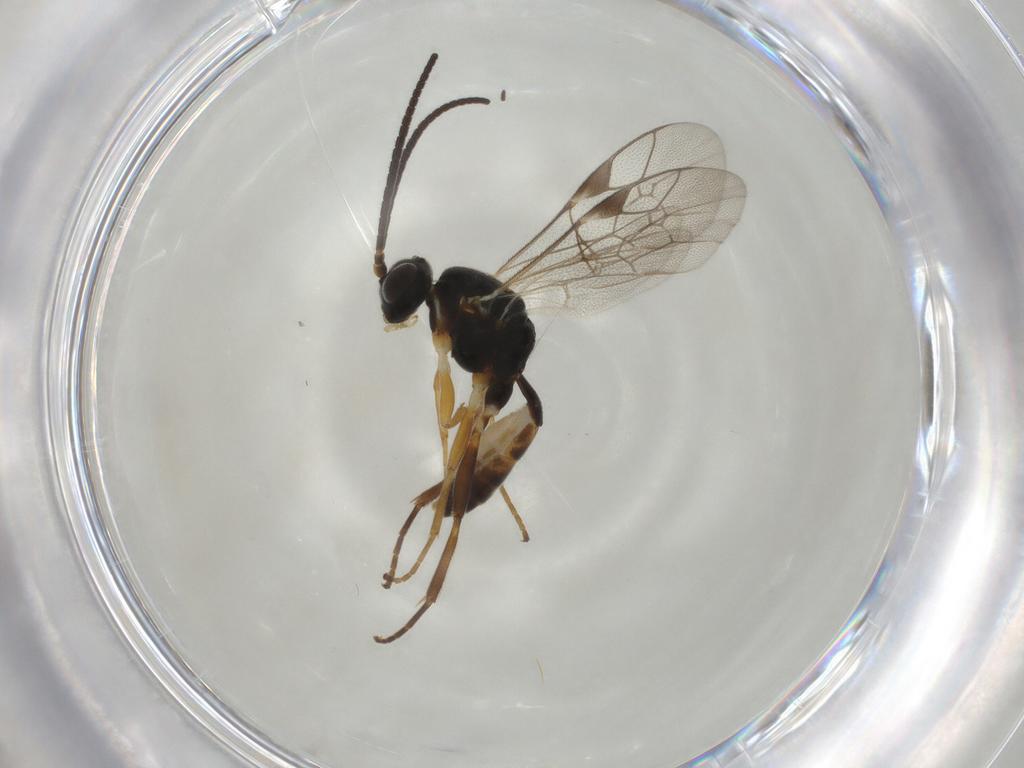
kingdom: Animalia
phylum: Arthropoda
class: Insecta
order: Hymenoptera
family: Ichneumonidae
